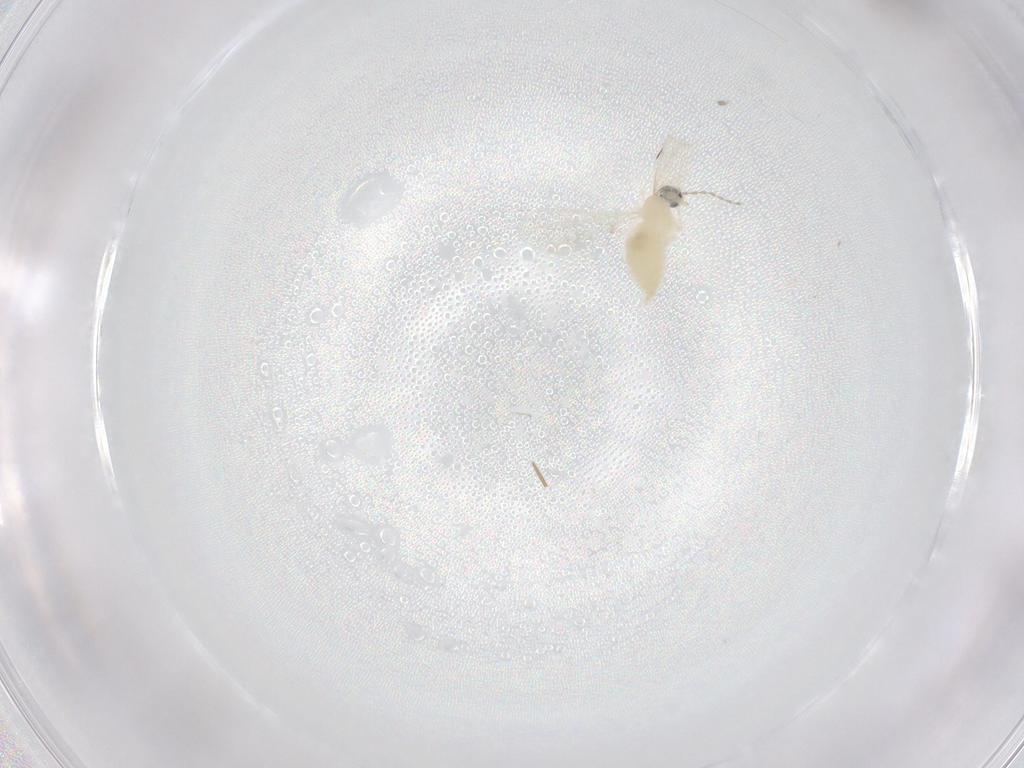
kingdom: Animalia
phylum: Arthropoda
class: Insecta
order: Diptera
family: Cecidomyiidae
